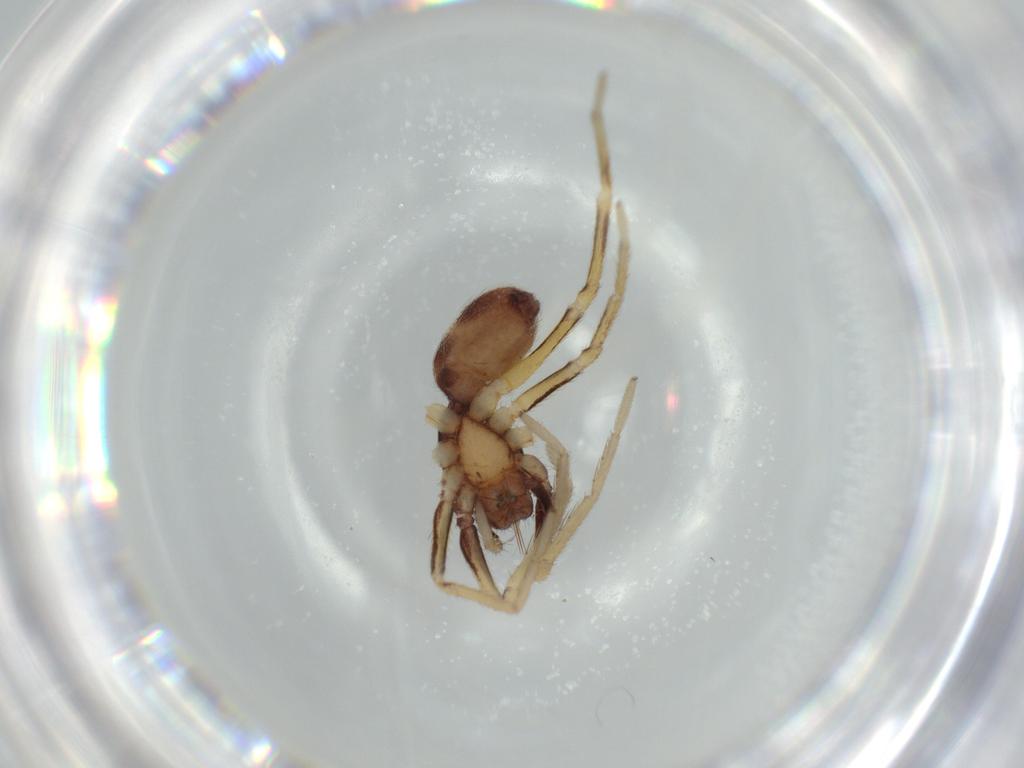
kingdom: Animalia
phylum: Arthropoda
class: Arachnida
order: Araneae
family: Corinnidae
